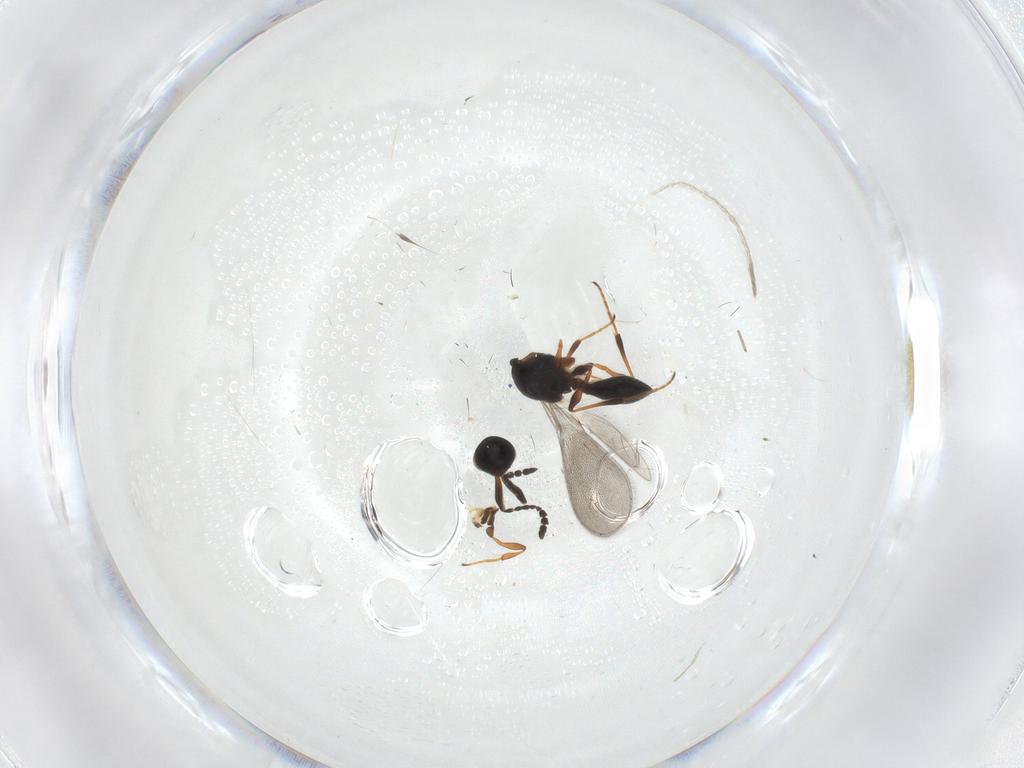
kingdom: Animalia
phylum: Arthropoda
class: Insecta
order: Hymenoptera
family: Platygastridae
